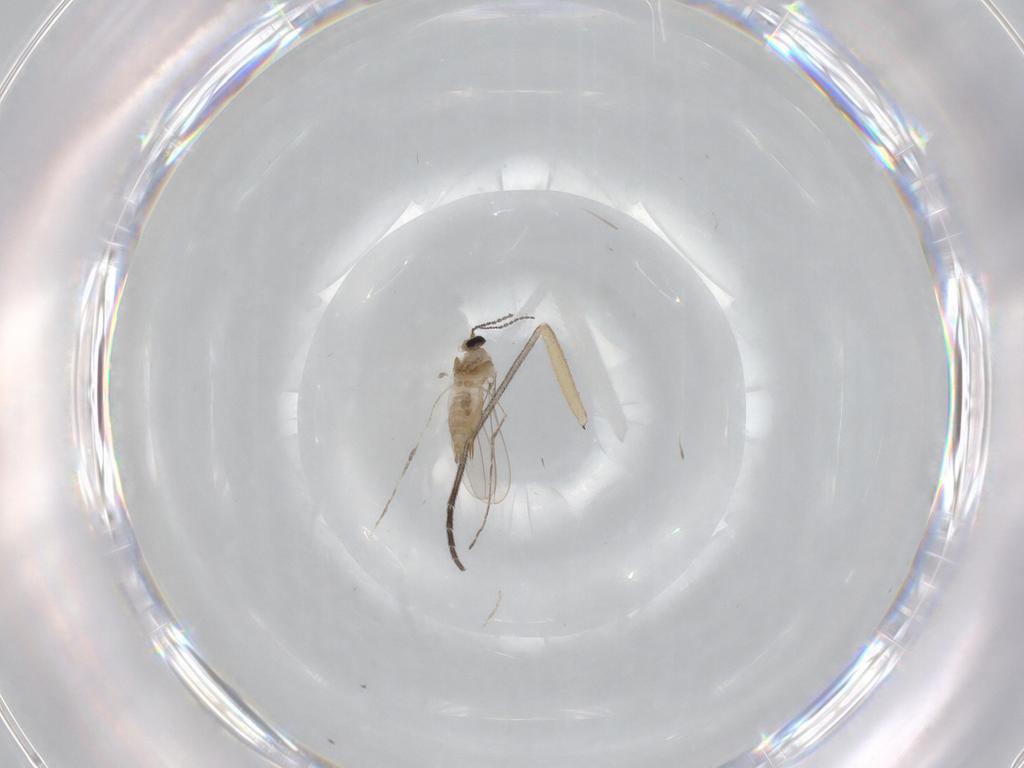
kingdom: Animalia
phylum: Arthropoda
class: Insecta
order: Diptera
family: Cecidomyiidae
